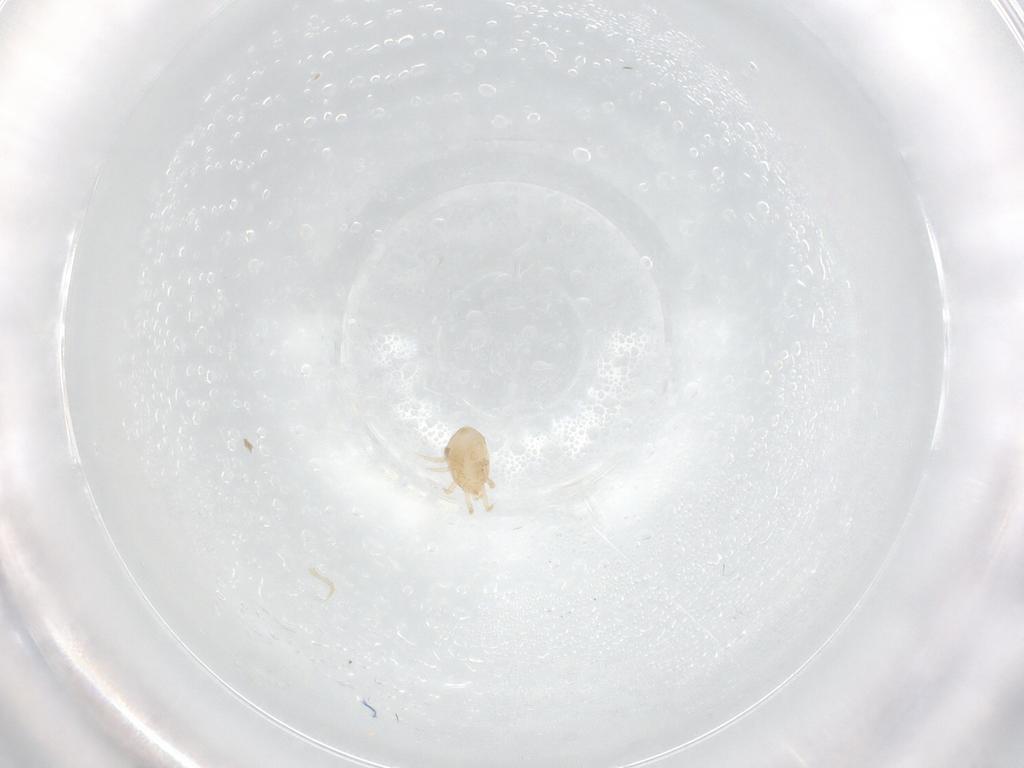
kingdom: Animalia
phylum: Arthropoda
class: Arachnida
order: Mesostigmata
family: Melicharidae
